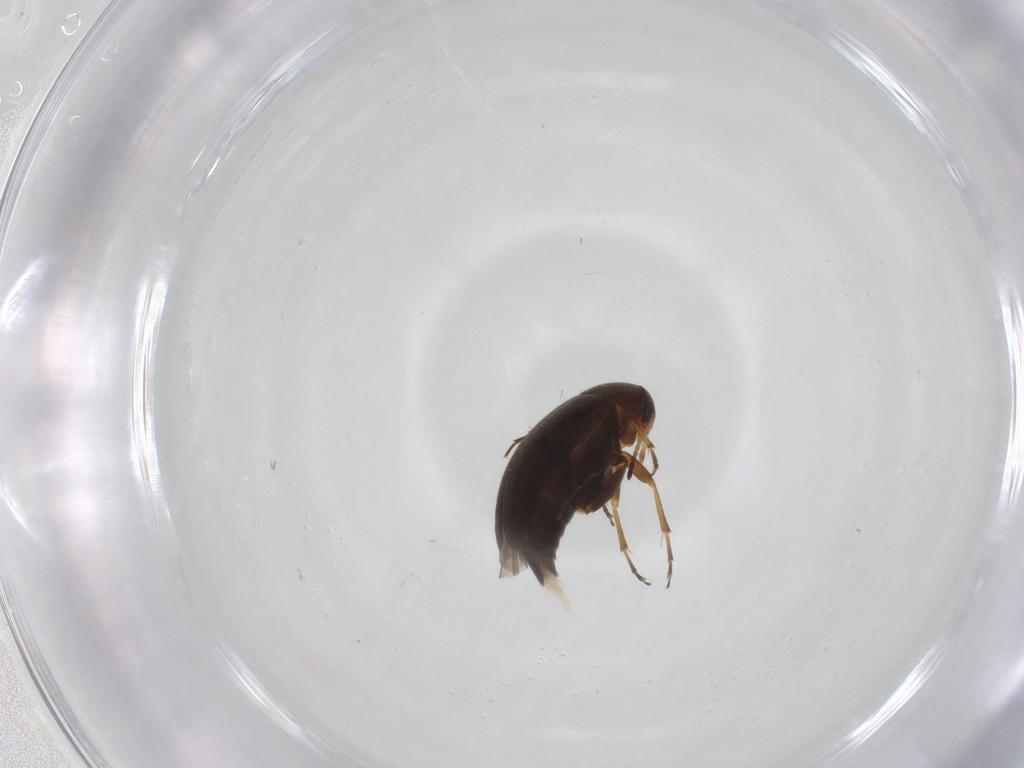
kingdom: Animalia
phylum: Arthropoda
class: Insecta
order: Coleoptera
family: Scraptiidae
